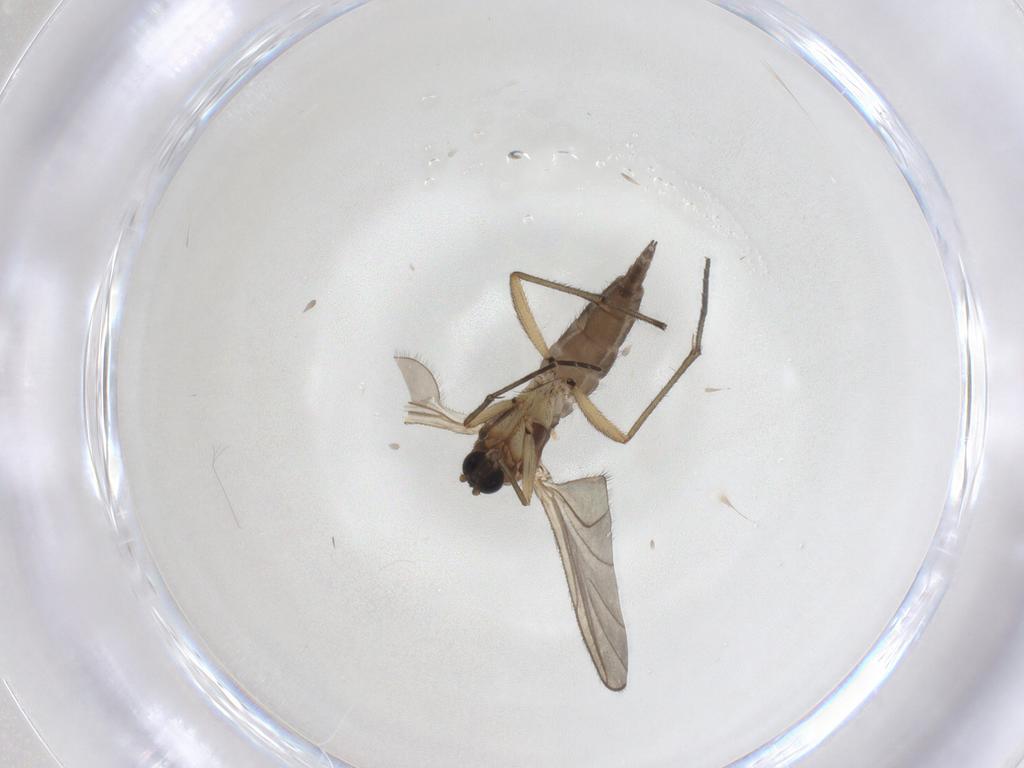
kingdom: Animalia
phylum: Arthropoda
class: Insecta
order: Diptera
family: Sciaridae
